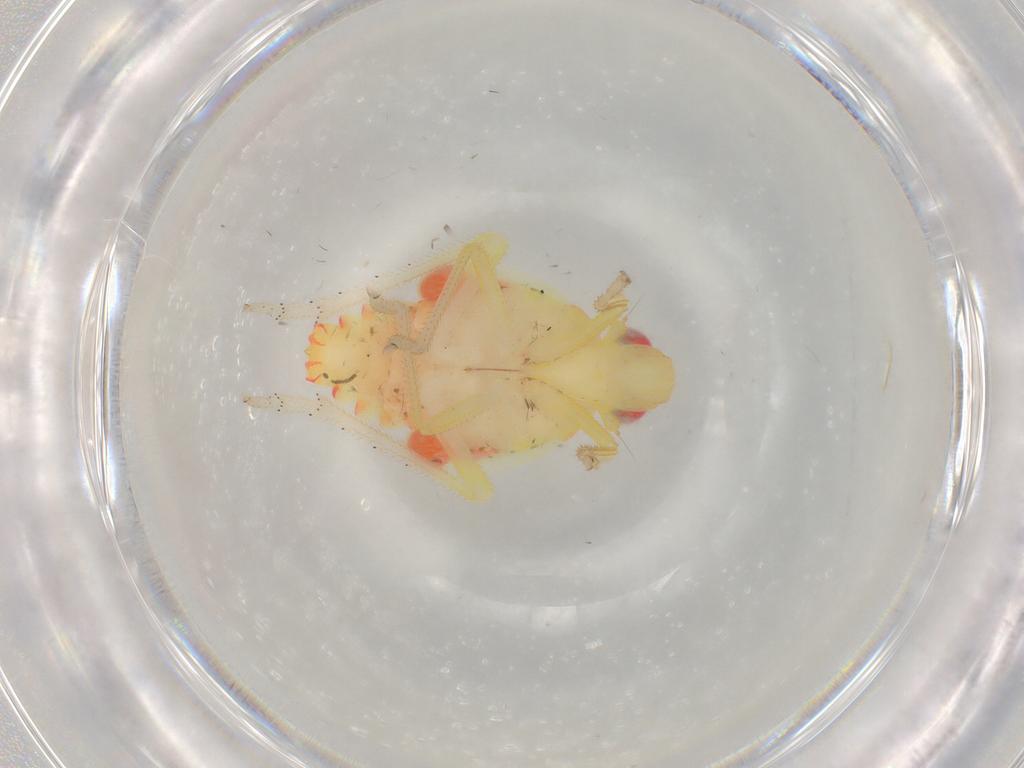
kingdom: Animalia
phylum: Arthropoda
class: Insecta
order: Hemiptera
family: Tropiduchidae
